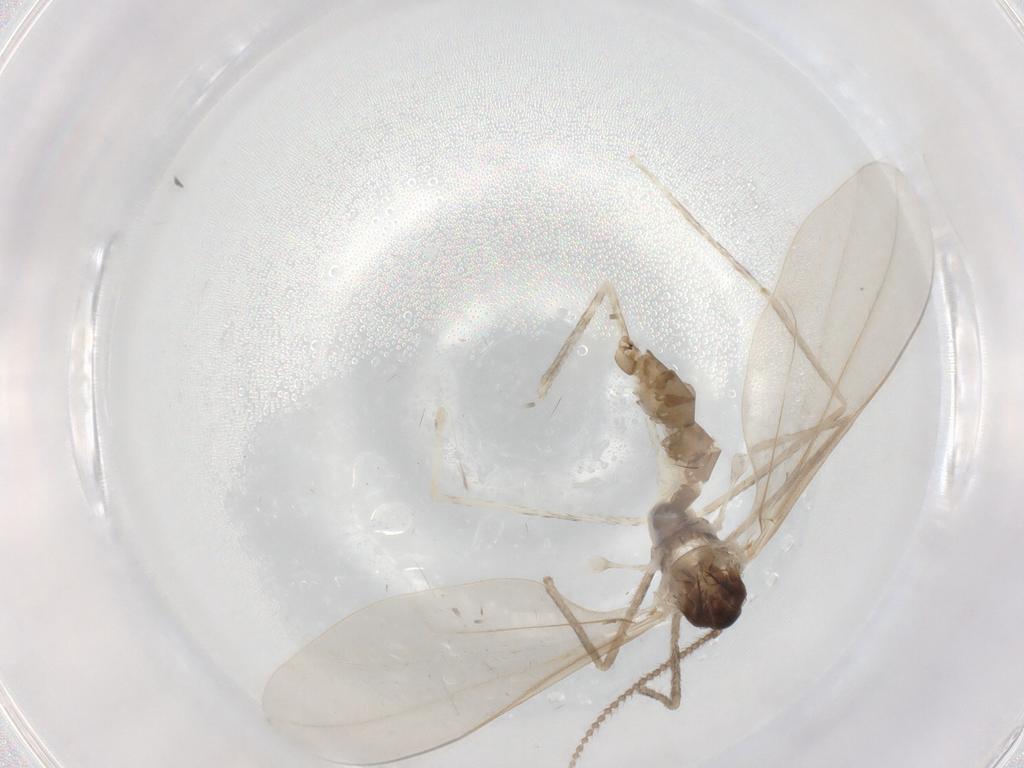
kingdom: Animalia
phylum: Arthropoda
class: Insecta
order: Diptera
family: Cecidomyiidae
